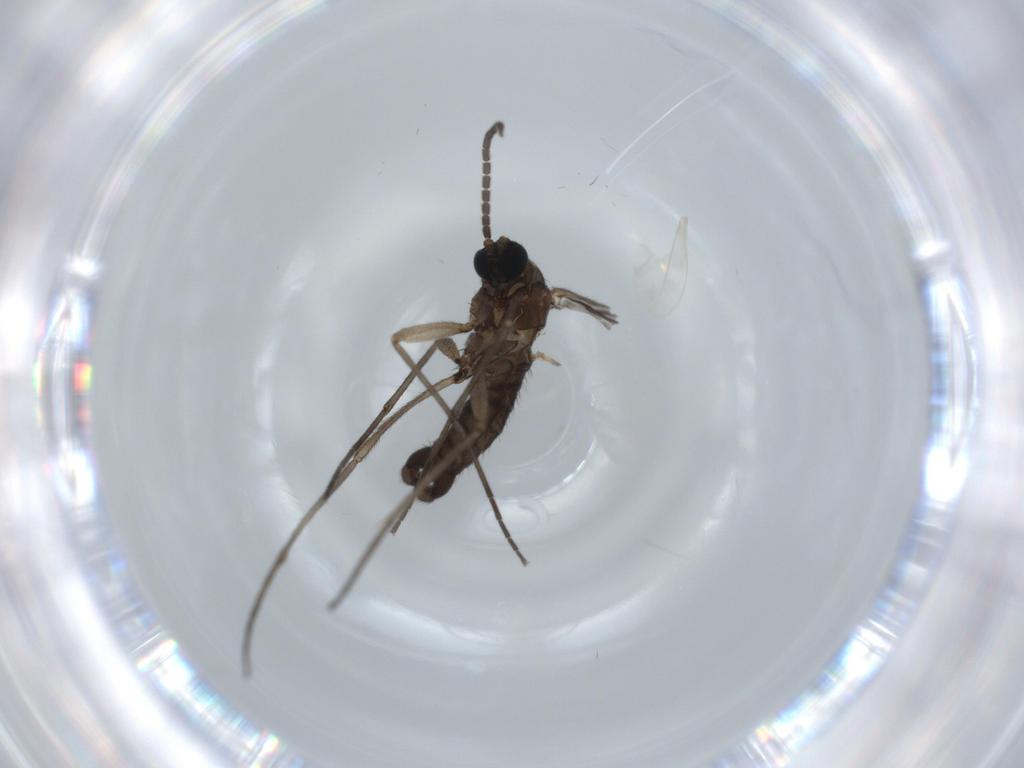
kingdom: Animalia
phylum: Arthropoda
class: Insecta
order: Diptera
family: Sciaridae
